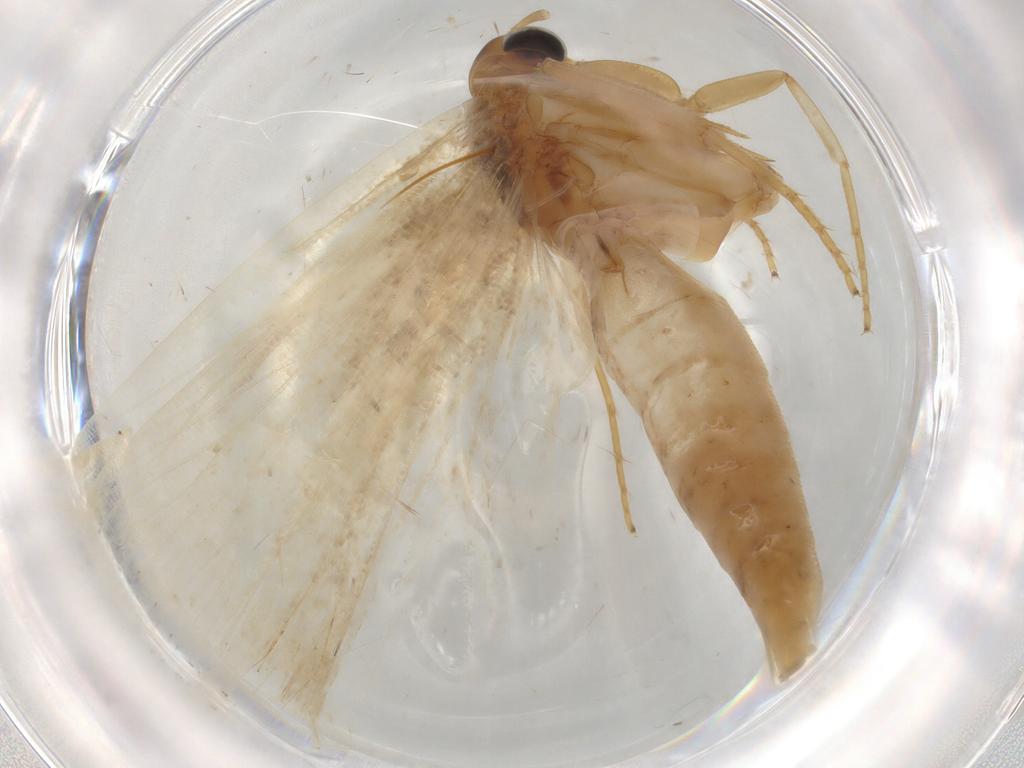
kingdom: Animalia
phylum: Arthropoda
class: Insecta
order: Lepidoptera
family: Gelechiidae
